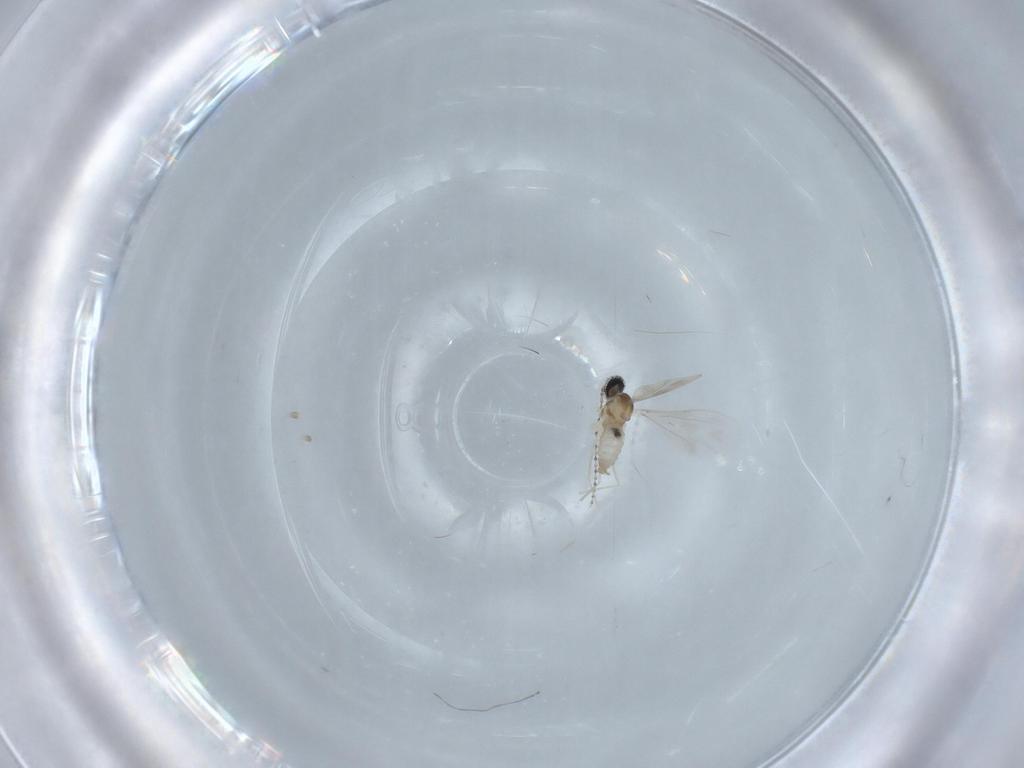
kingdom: Animalia
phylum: Arthropoda
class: Insecta
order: Diptera
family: Cecidomyiidae
